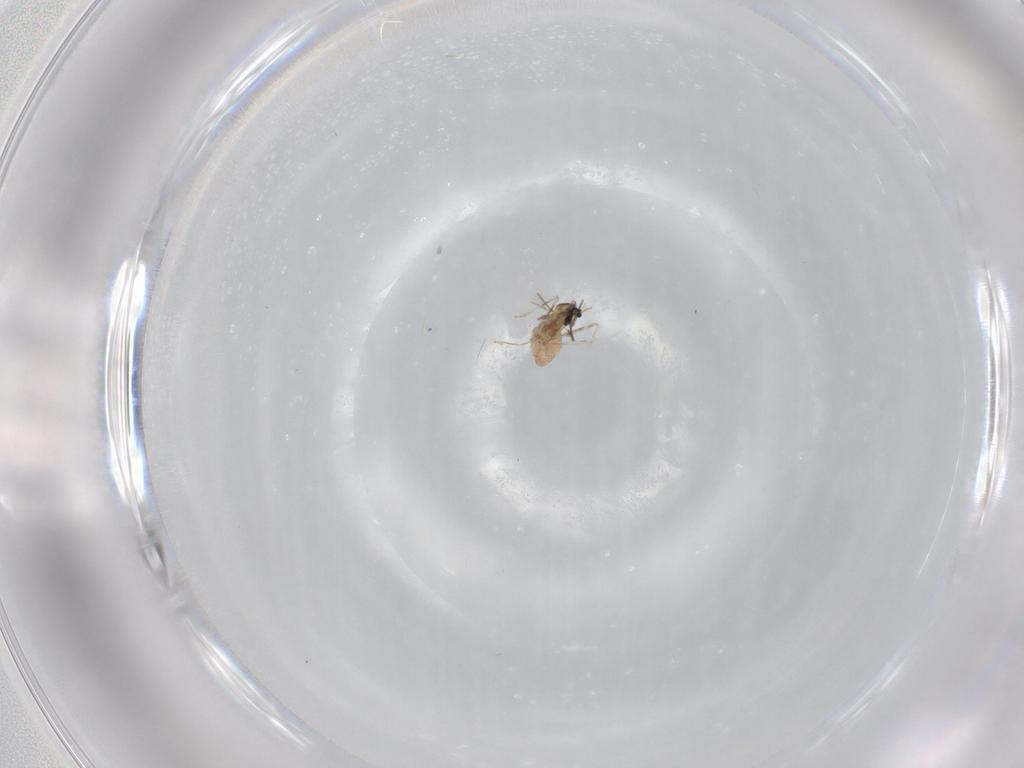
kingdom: Animalia
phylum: Arthropoda
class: Insecta
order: Diptera
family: Cecidomyiidae
